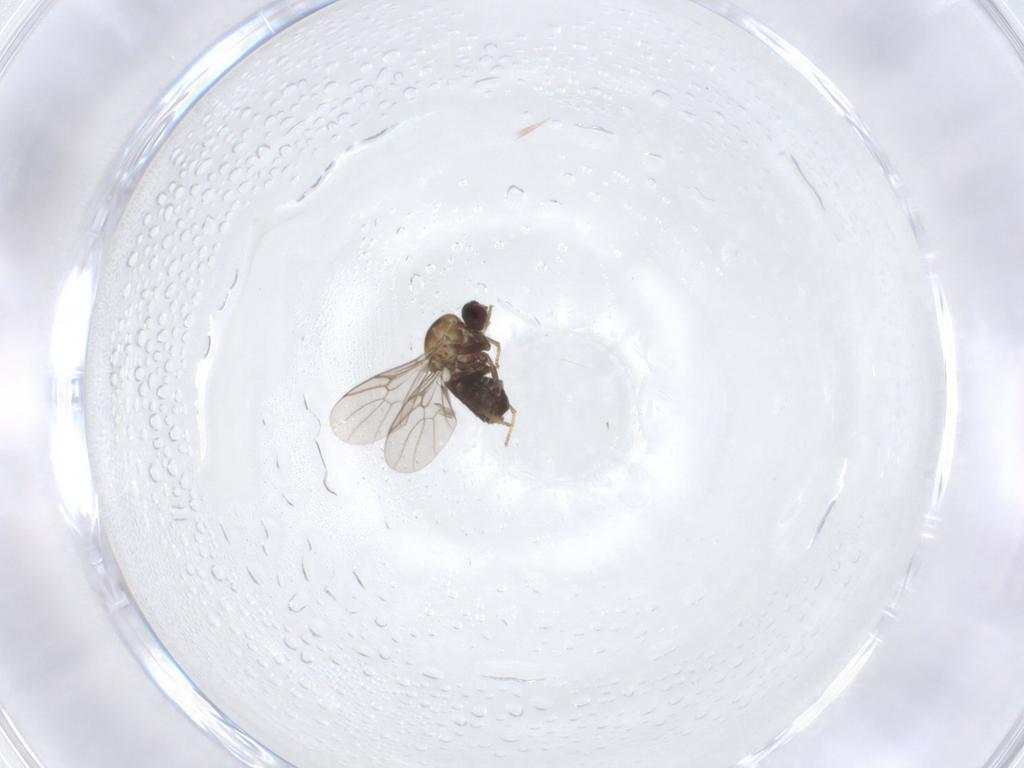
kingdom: Animalia
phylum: Arthropoda
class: Insecta
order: Diptera
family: Mythicomyiidae
